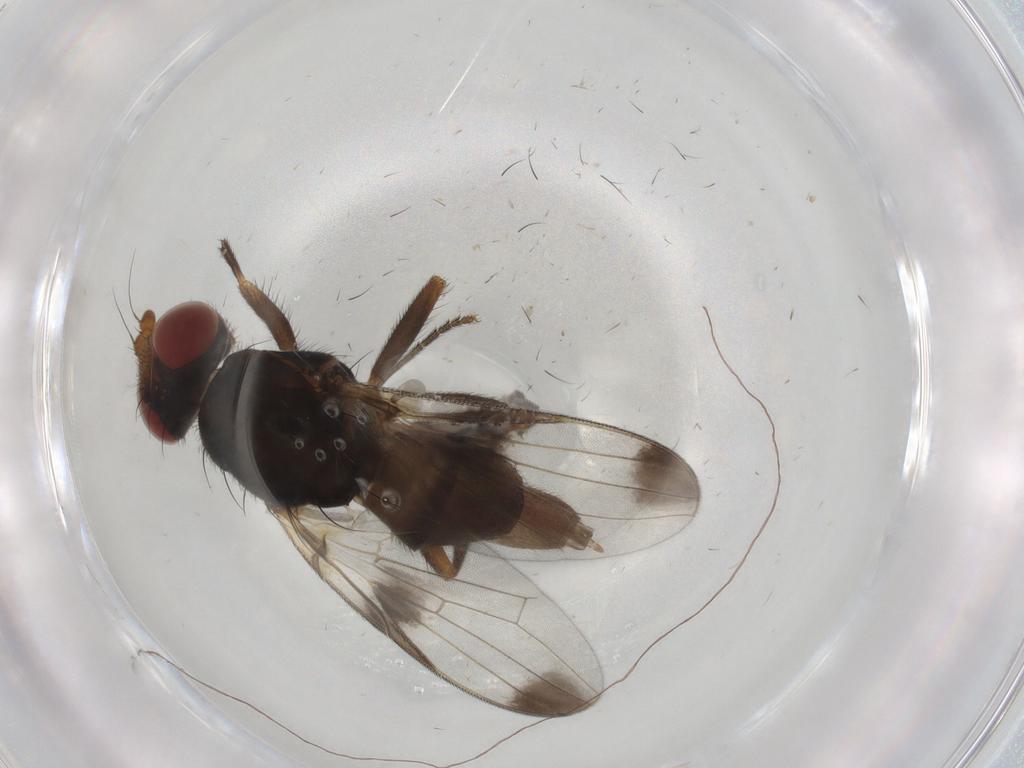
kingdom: Animalia
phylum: Arthropoda
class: Insecta
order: Diptera
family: Ulidiidae
